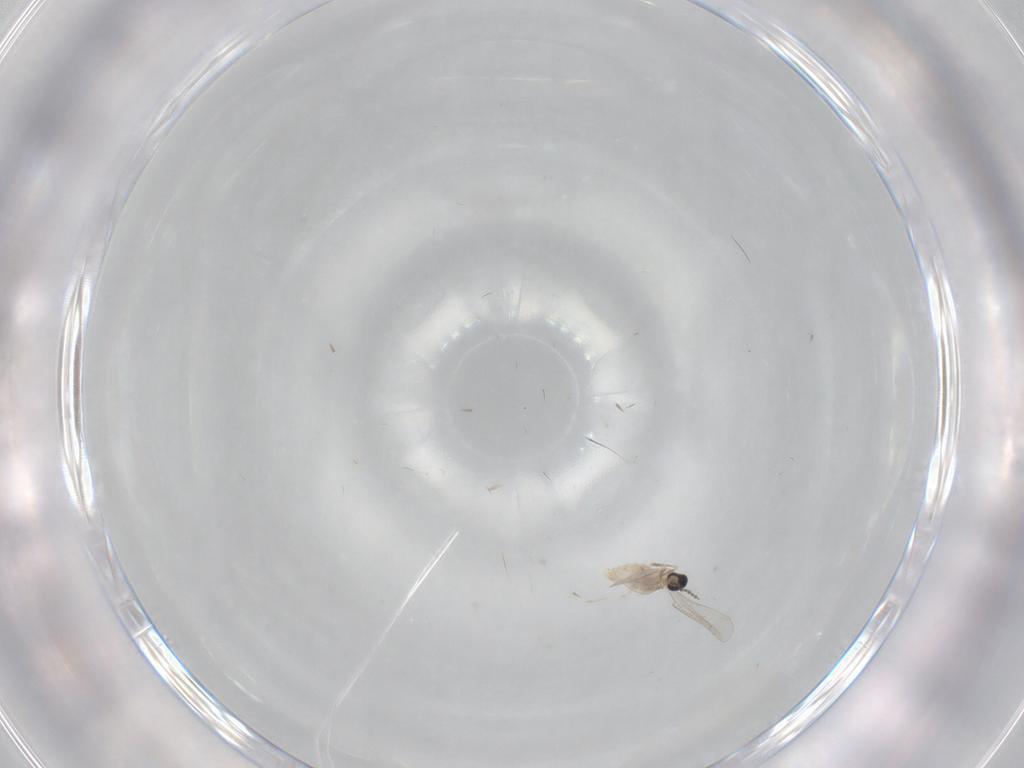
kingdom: Animalia
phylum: Arthropoda
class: Insecta
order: Diptera
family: Cecidomyiidae
